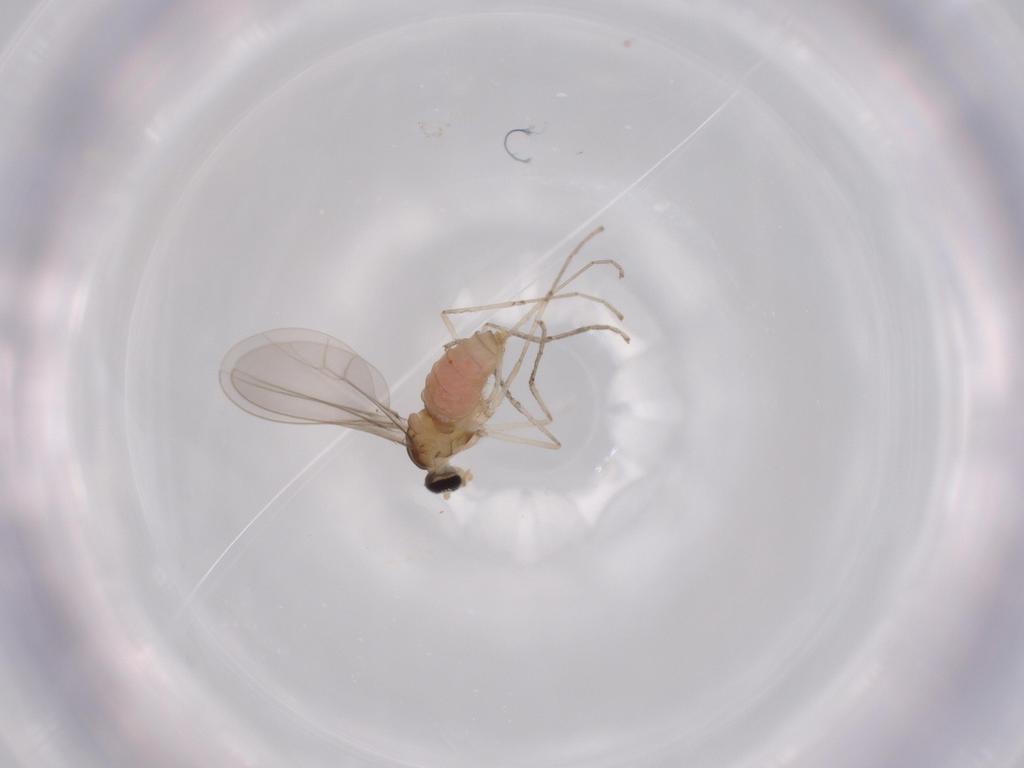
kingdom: Animalia
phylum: Arthropoda
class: Insecta
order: Diptera
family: Cecidomyiidae
